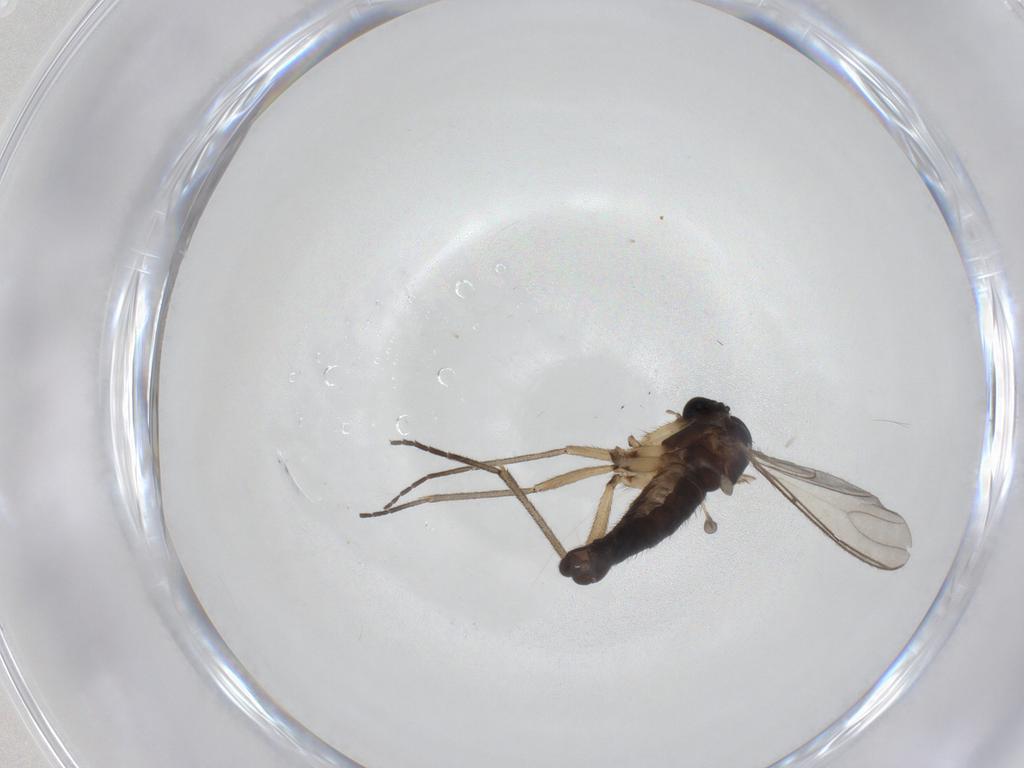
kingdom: Animalia
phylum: Arthropoda
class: Insecta
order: Diptera
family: Sciaridae
